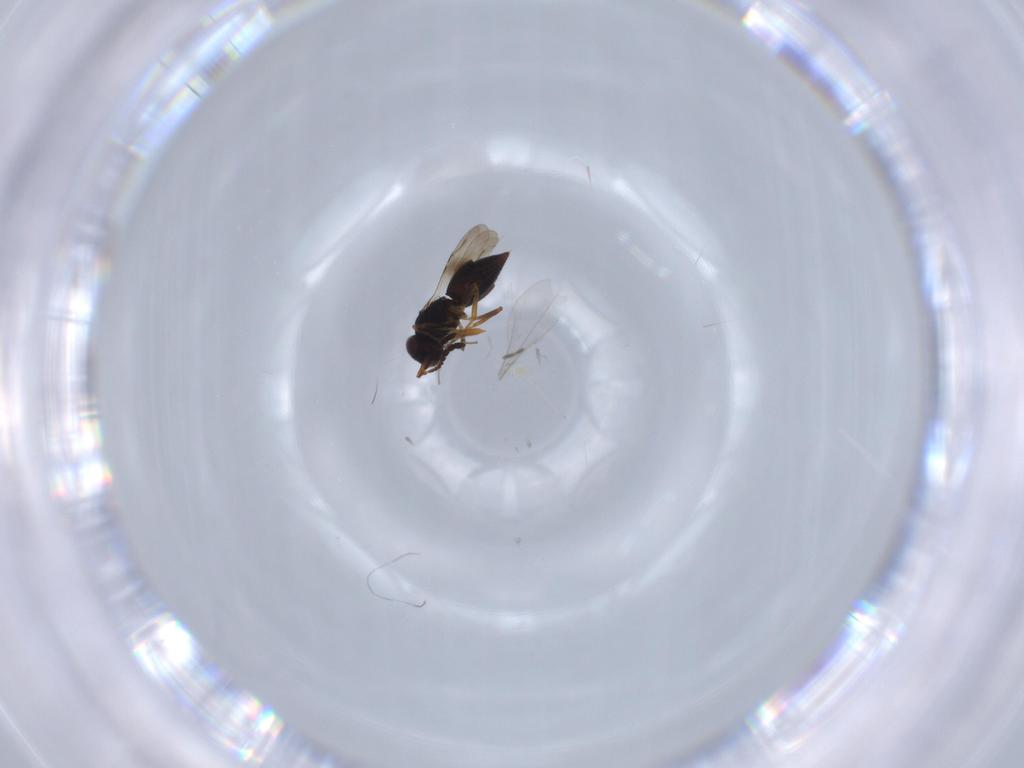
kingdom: Animalia
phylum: Arthropoda
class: Insecta
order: Hymenoptera
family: Ichneumonidae
